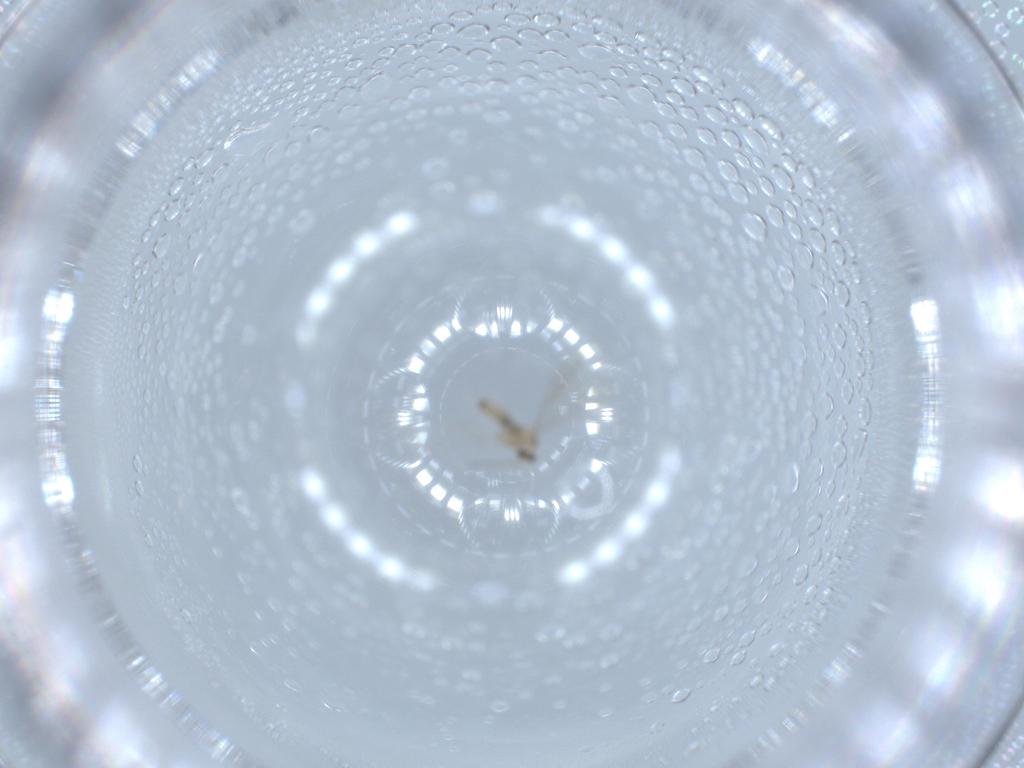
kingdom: Animalia
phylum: Arthropoda
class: Insecta
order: Diptera
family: Cecidomyiidae
